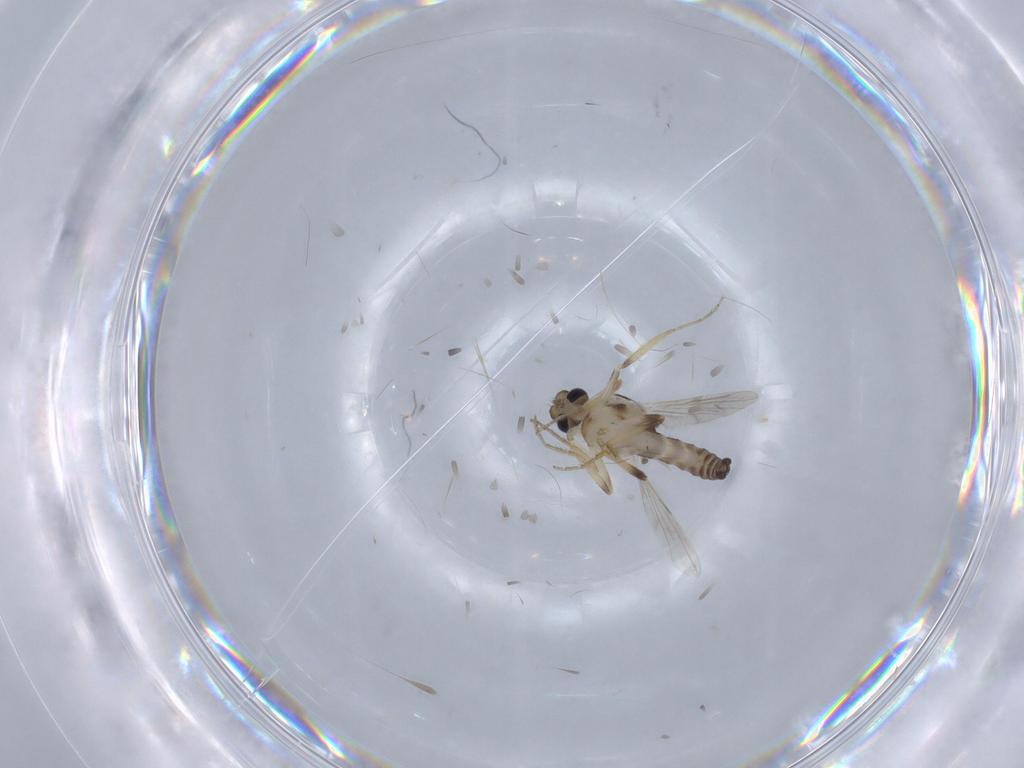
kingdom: Animalia
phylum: Arthropoda
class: Insecta
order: Diptera
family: Ceratopogonidae
